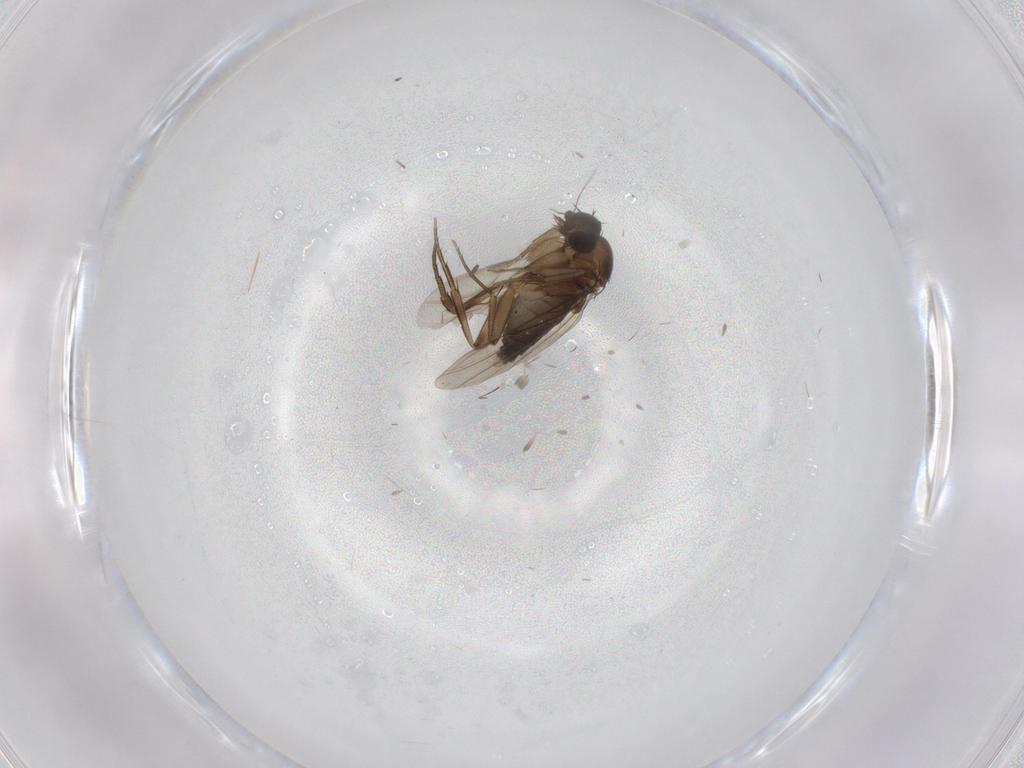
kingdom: Animalia
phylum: Arthropoda
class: Insecta
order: Diptera
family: Phoridae
